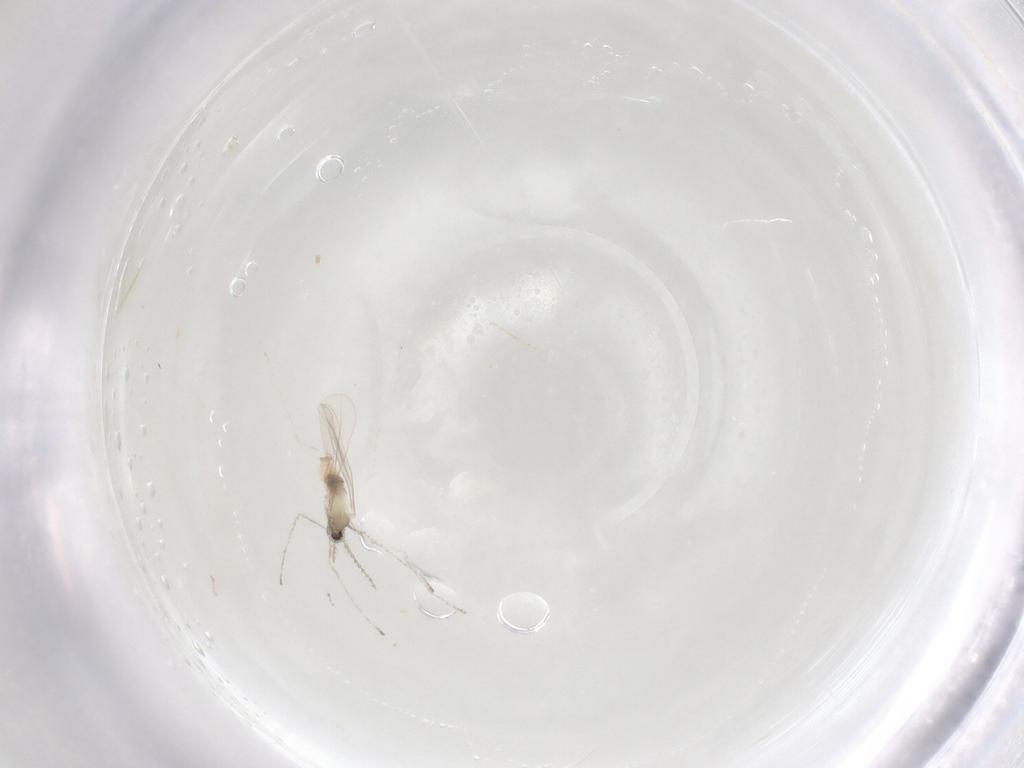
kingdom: Animalia
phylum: Arthropoda
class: Insecta
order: Diptera
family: Cecidomyiidae
